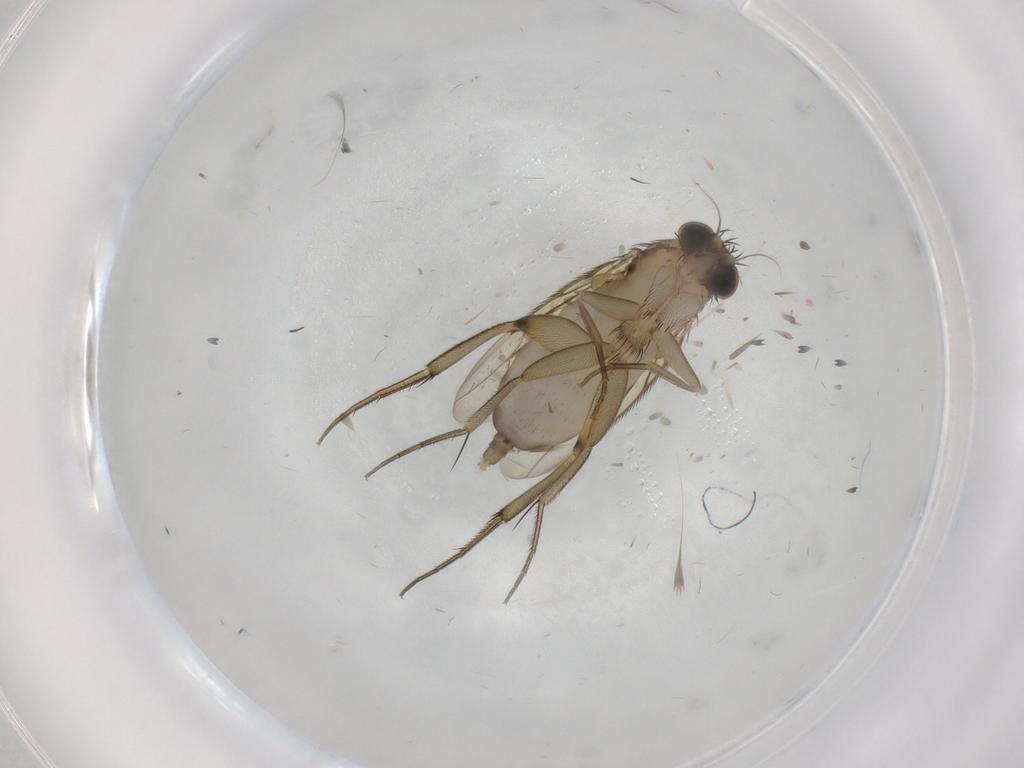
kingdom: Animalia
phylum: Arthropoda
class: Insecta
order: Diptera
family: Phoridae
